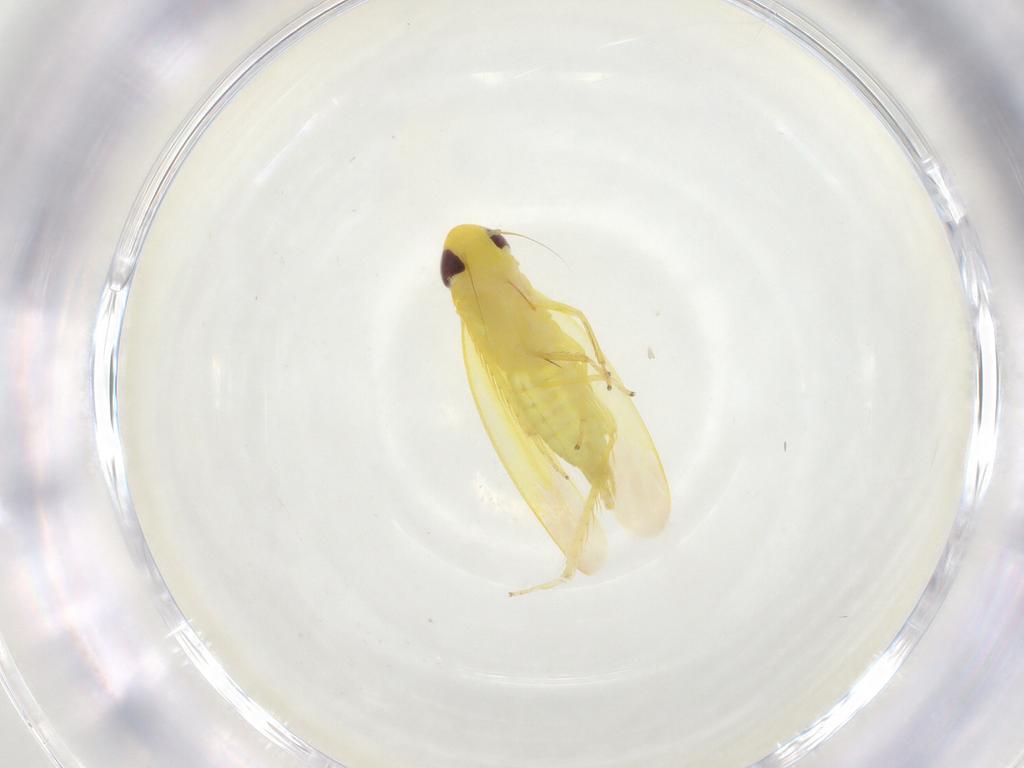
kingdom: Animalia
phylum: Arthropoda
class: Insecta
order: Hemiptera
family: Cicadellidae
